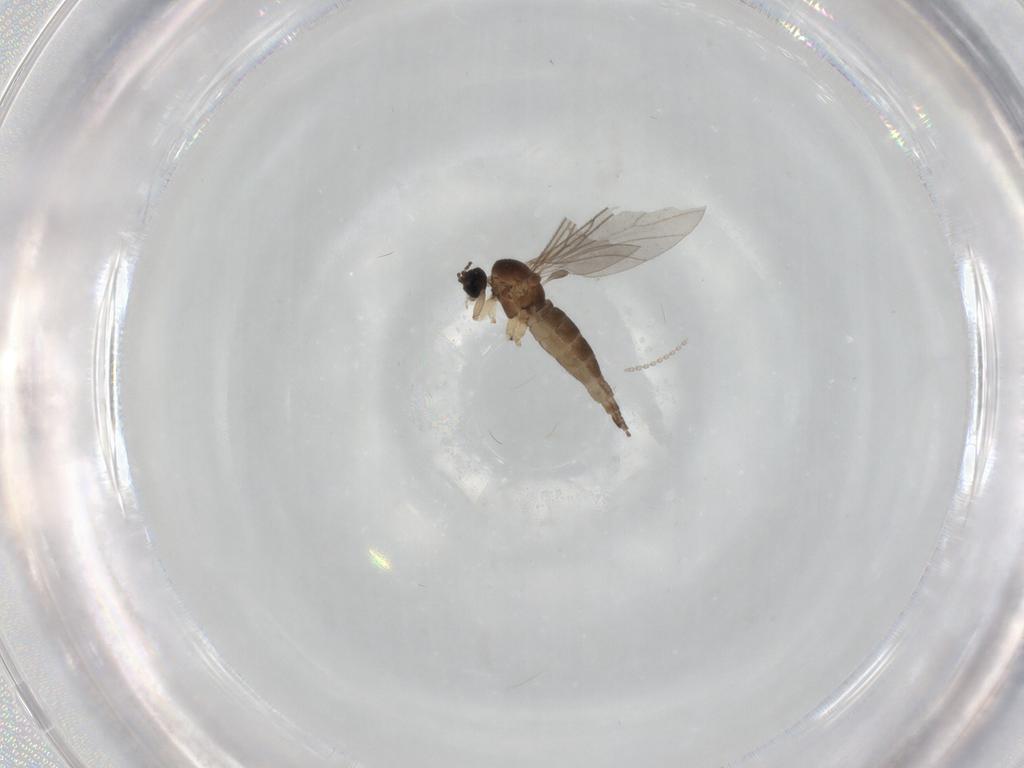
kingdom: Animalia
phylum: Arthropoda
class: Insecta
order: Diptera
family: Sciaridae
